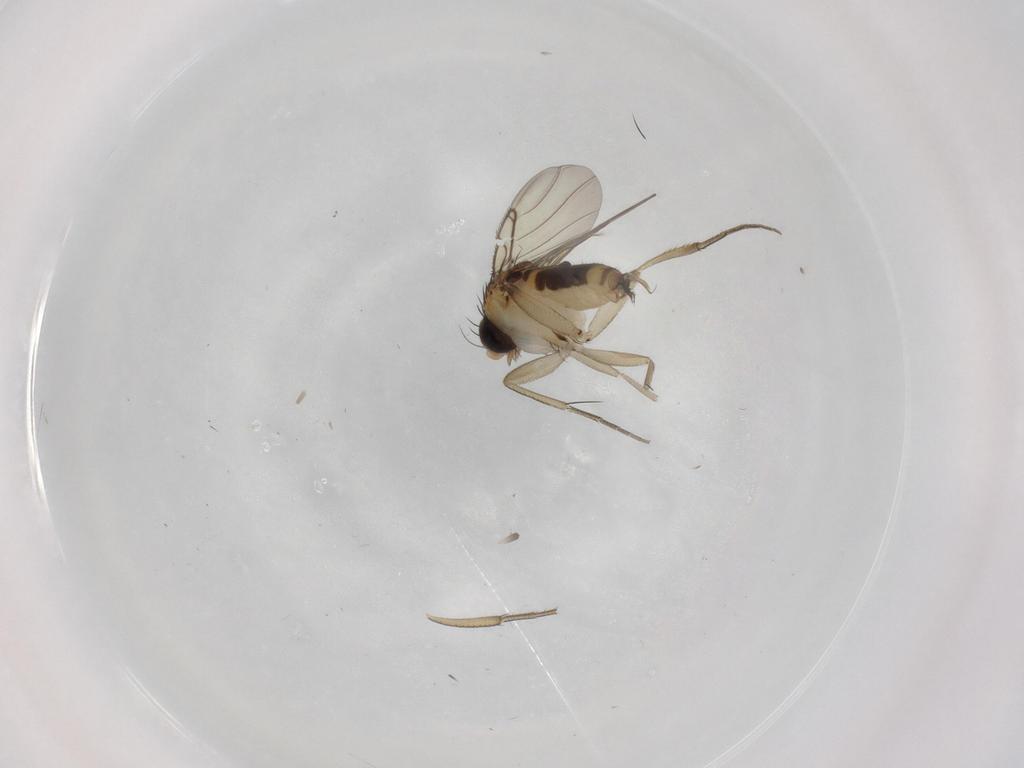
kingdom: Animalia
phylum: Arthropoda
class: Insecta
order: Diptera
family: Phoridae
